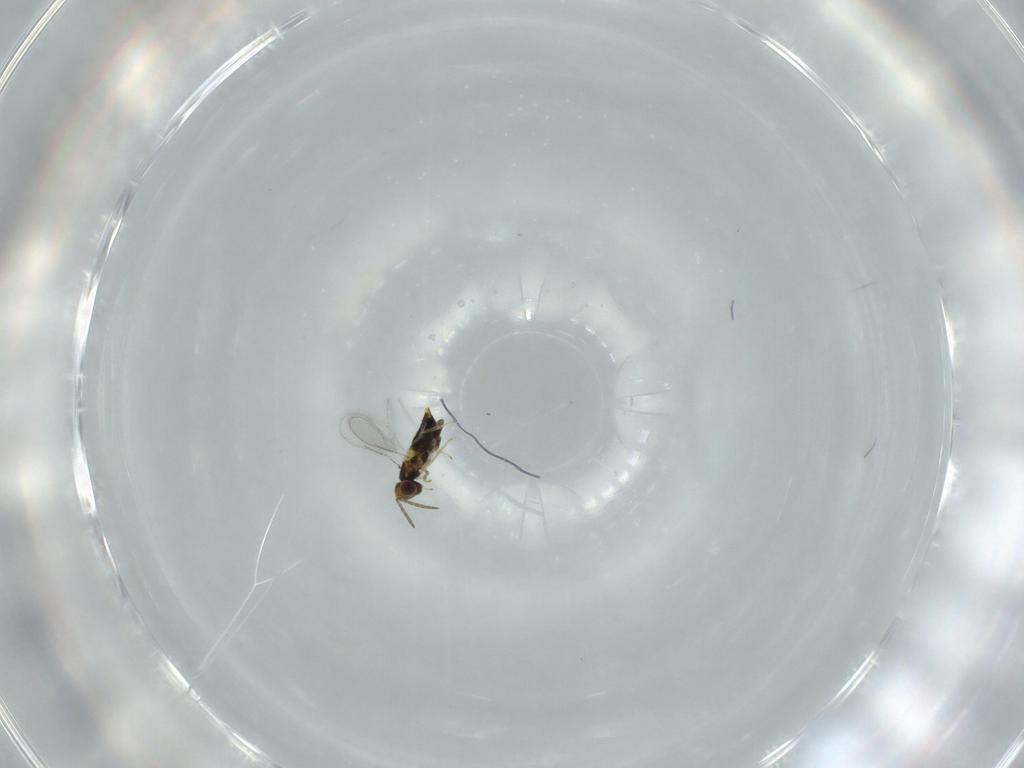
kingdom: Animalia
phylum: Arthropoda
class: Insecta
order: Hymenoptera
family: Aphelinidae
